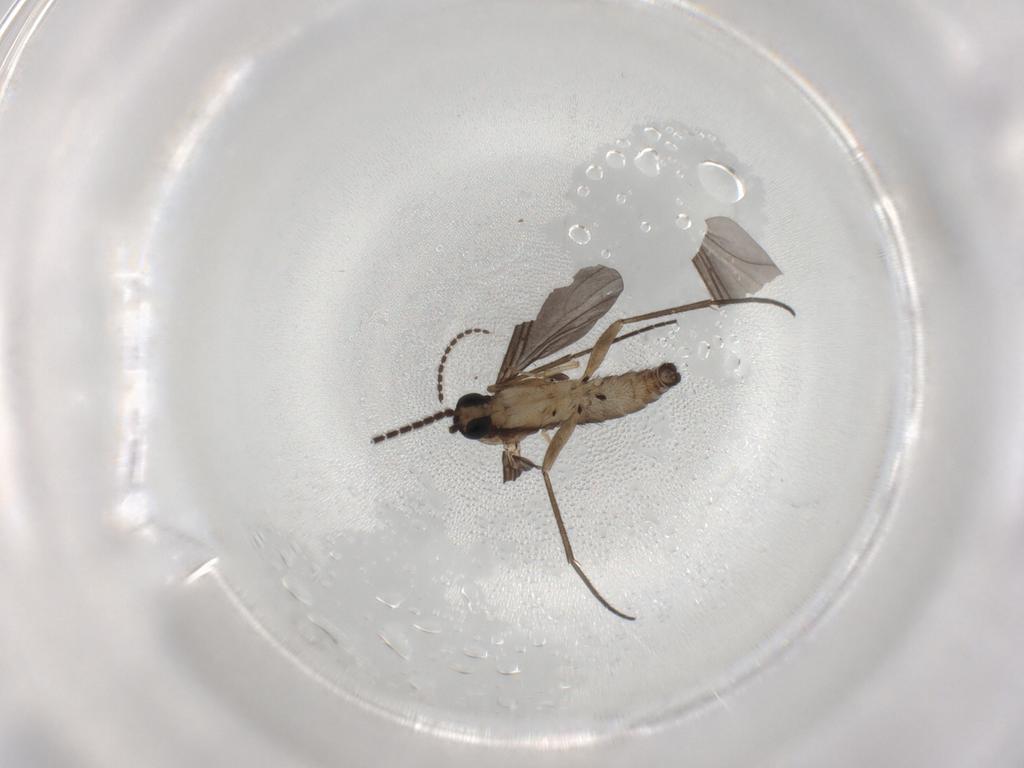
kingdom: Animalia
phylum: Arthropoda
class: Insecta
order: Diptera
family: Sciaridae
